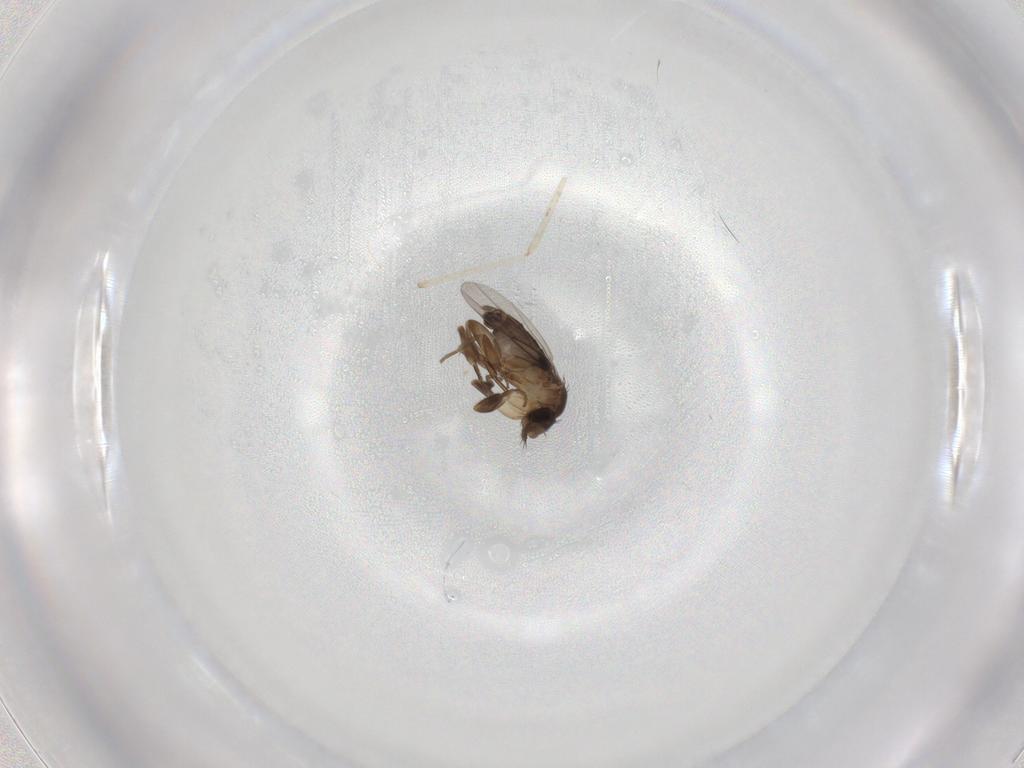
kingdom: Animalia
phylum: Arthropoda
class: Insecta
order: Diptera
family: Phoridae
